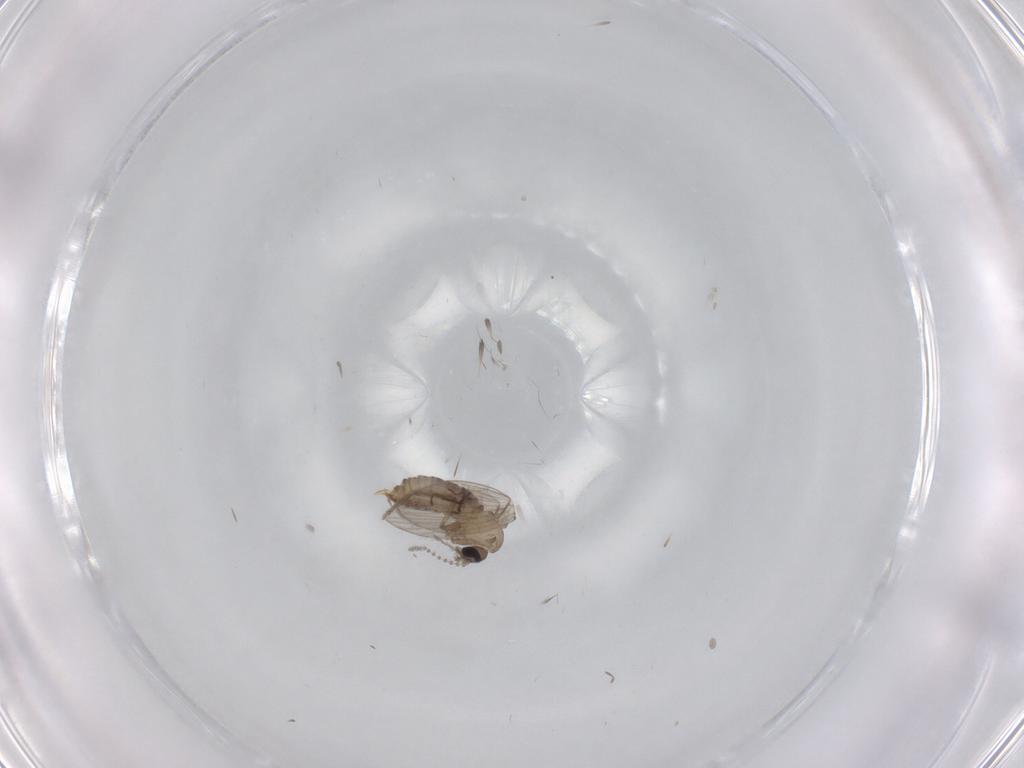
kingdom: Animalia
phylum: Arthropoda
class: Insecta
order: Diptera
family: Psychodidae
